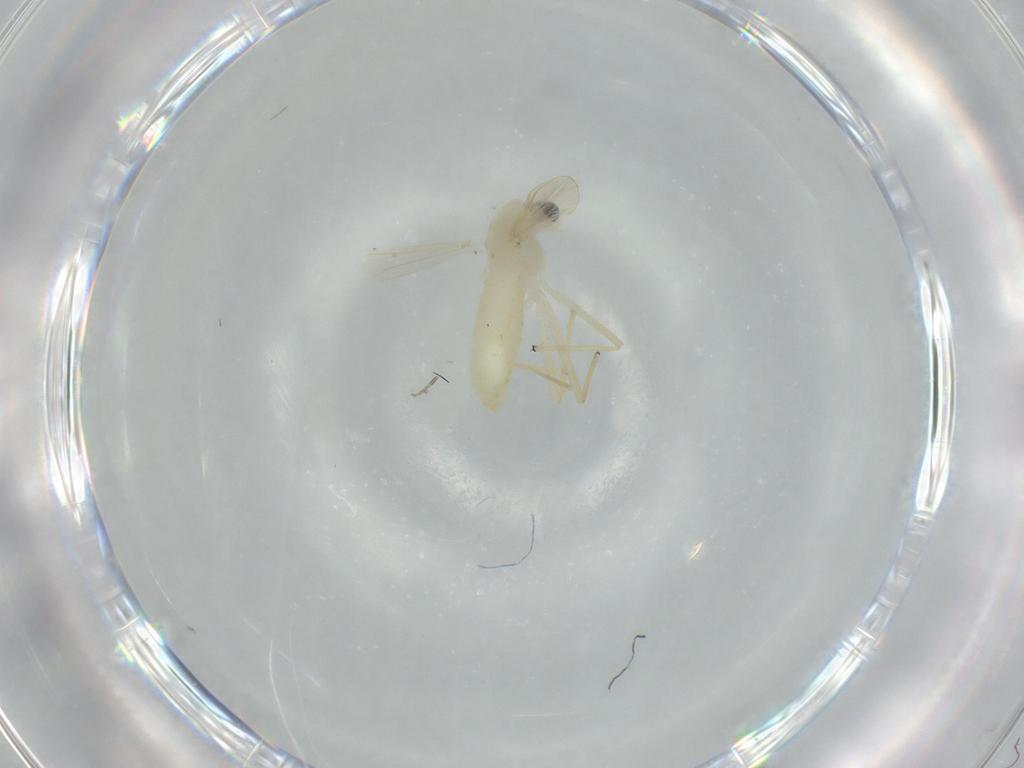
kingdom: Animalia
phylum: Arthropoda
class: Insecta
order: Diptera
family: Chironomidae
